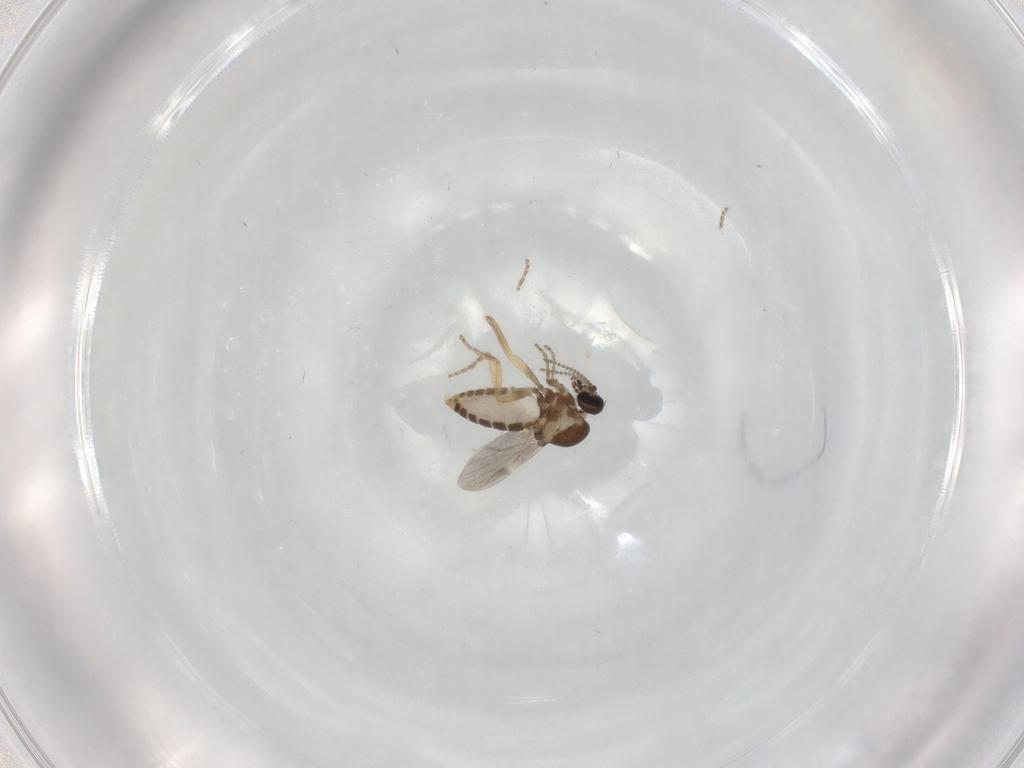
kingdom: Animalia
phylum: Arthropoda
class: Insecta
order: Diptera
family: Ceratopogonidae
